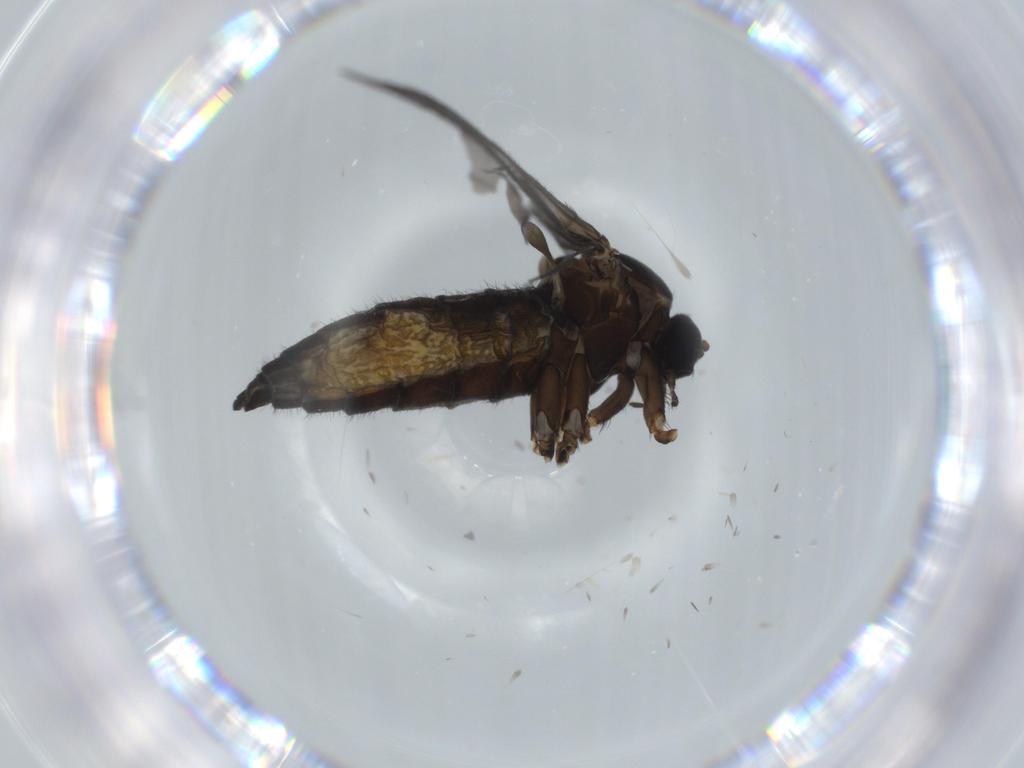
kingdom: Animalia
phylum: Arthropoda
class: Insecta
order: Diptera
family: Sciaridae
